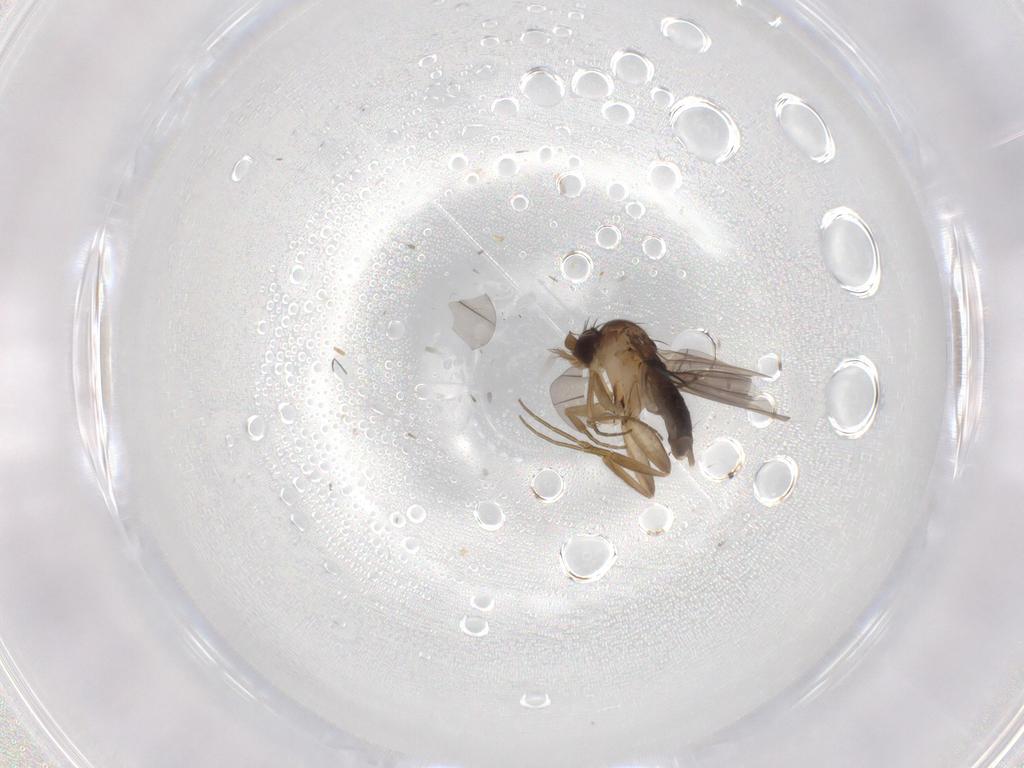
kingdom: Animalia
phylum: Arthropoda
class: Insecta
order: Diptera
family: Phoridae
